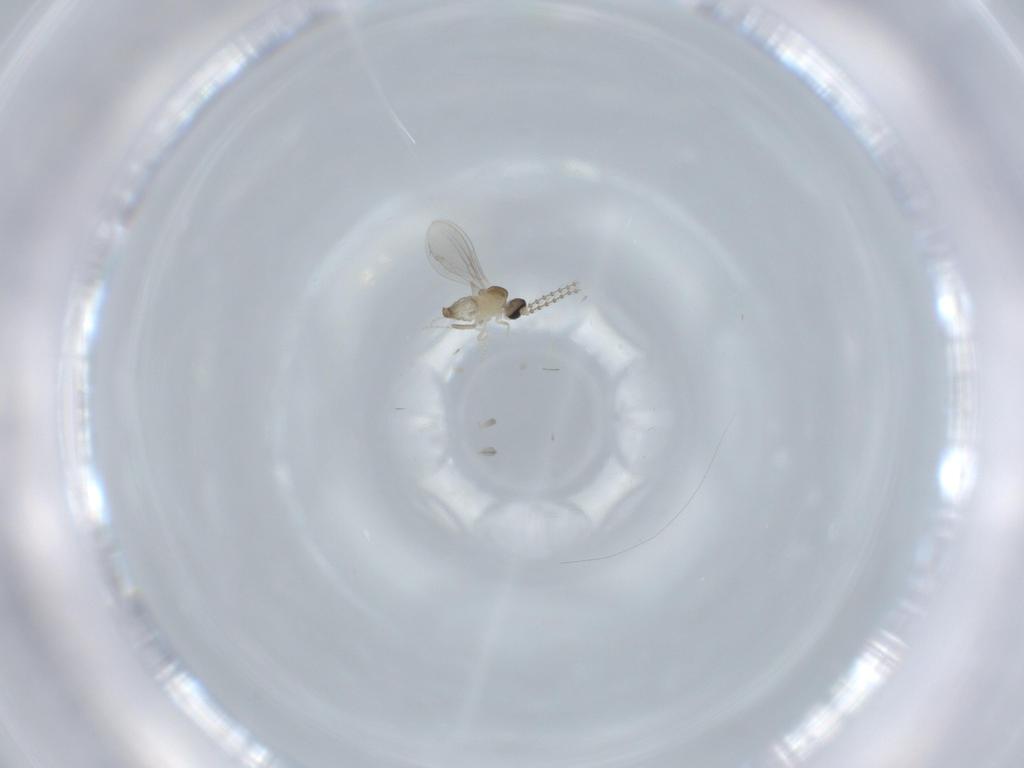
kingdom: Animalia
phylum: Arthropoda
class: Insecta
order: Diptera
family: Cecidomyiidae
